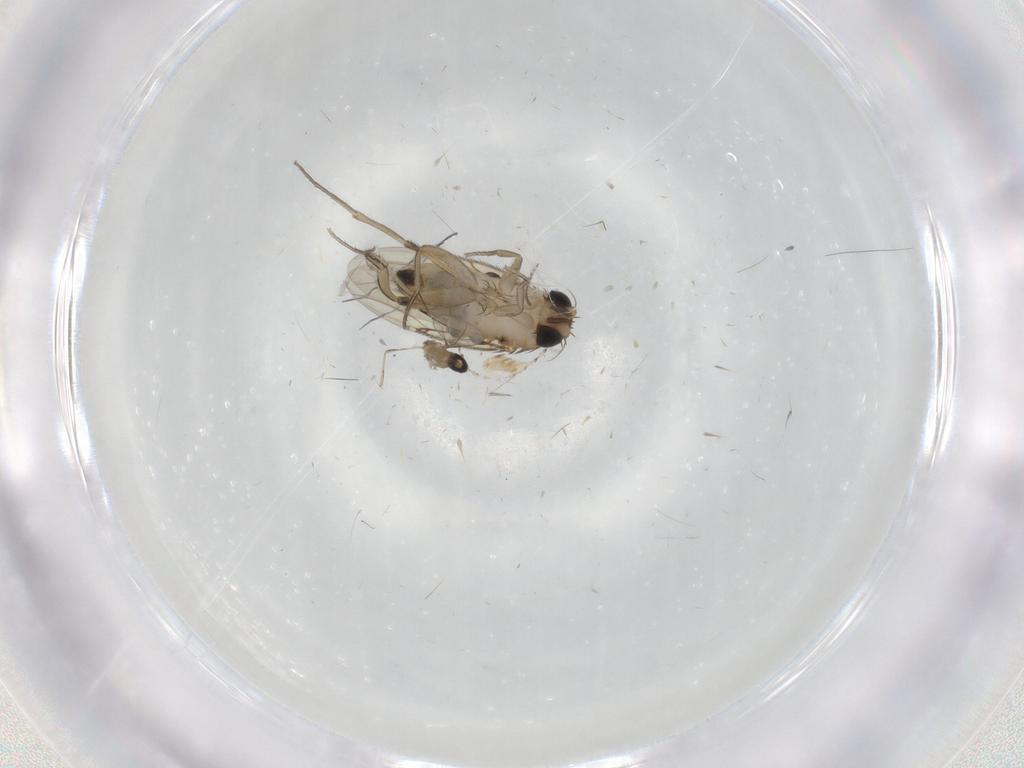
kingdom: Animalia
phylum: Arthropoda
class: Insecta
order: Diptera
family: Phoridae
